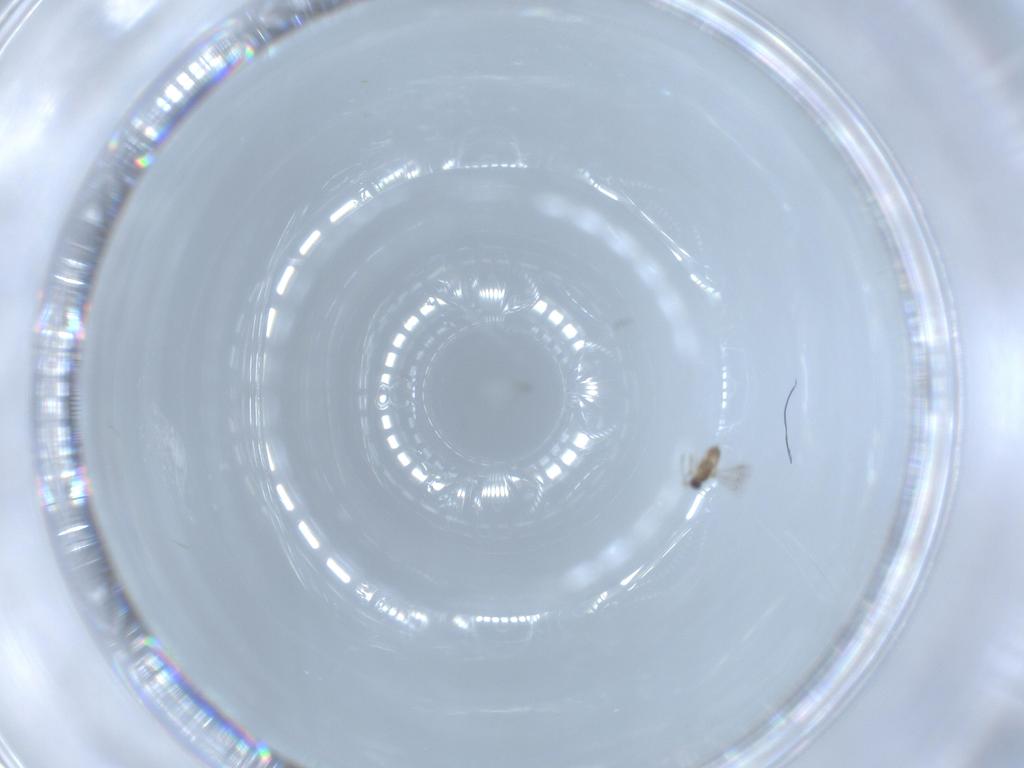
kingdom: Animalia
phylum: Arthropoda
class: Insecta
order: Hymenoptera
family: Mymaridae
